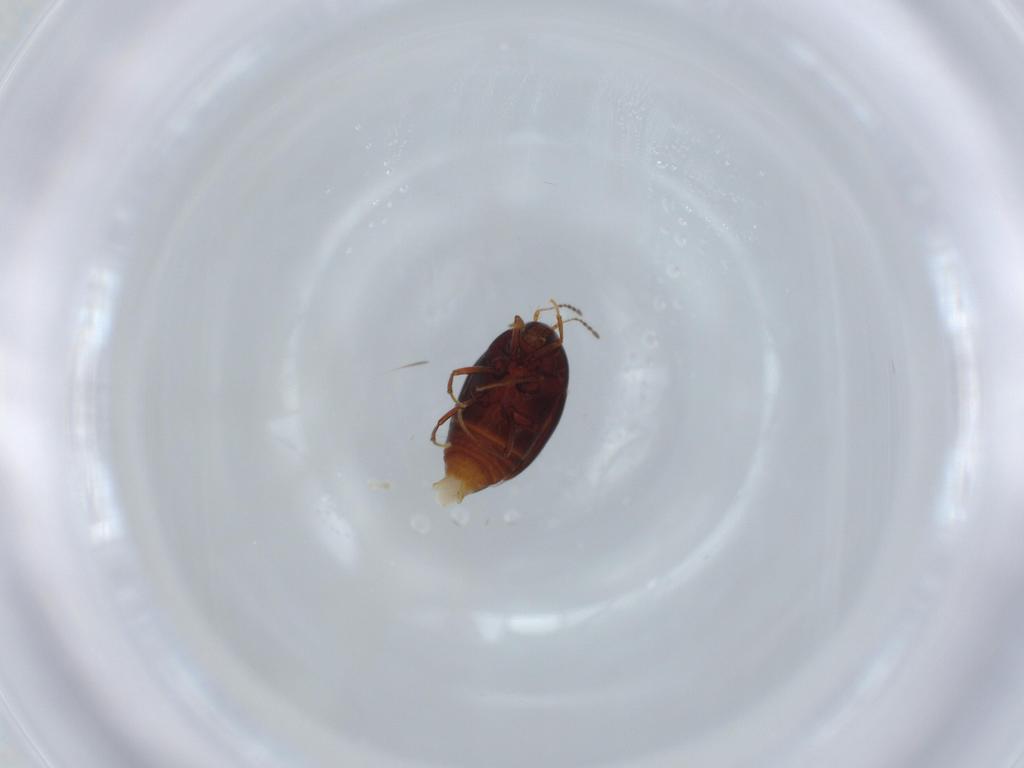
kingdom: Animalia
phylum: Arthropoda
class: Insecta
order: Coleoptera
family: Staphylinidae
